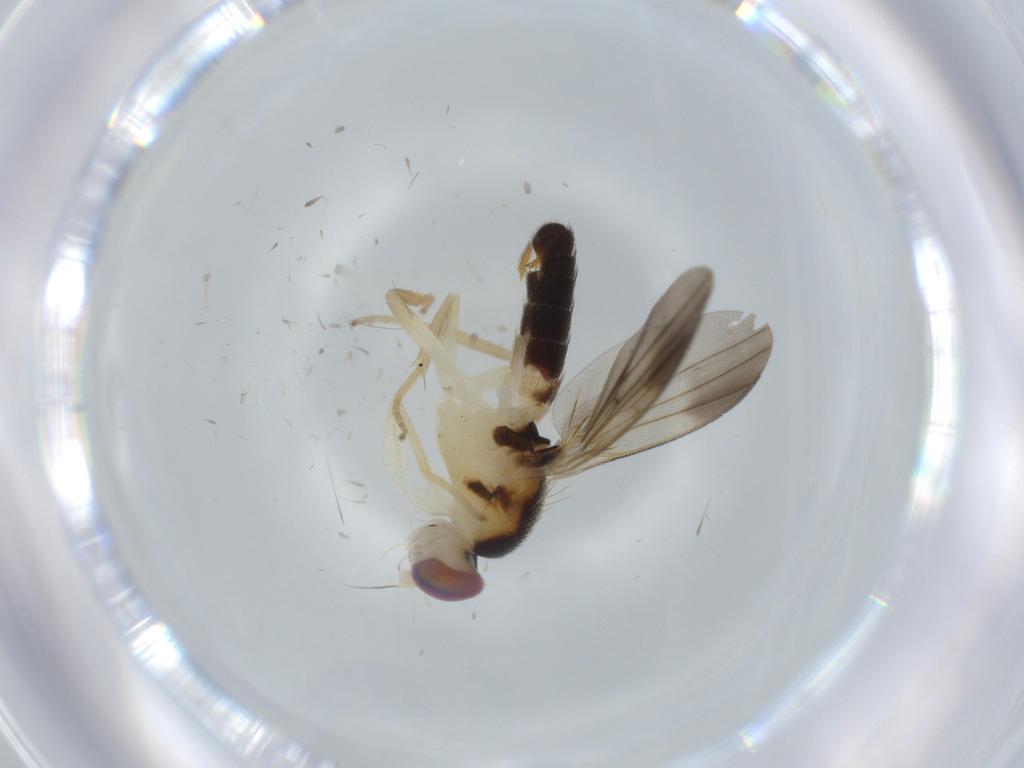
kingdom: Animalia
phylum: Arthropoda
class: Insecta
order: Diptera
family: Clusiidae
